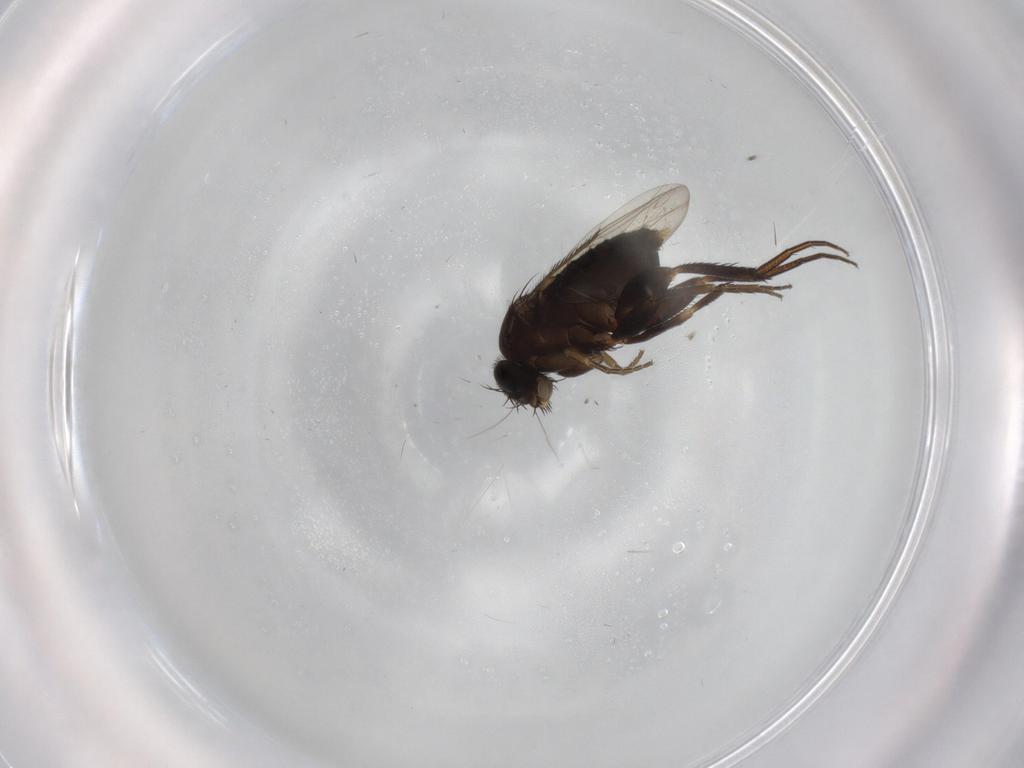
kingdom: Animalia
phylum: Arthropoda
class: Insecta
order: Diptera
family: Phoridae
